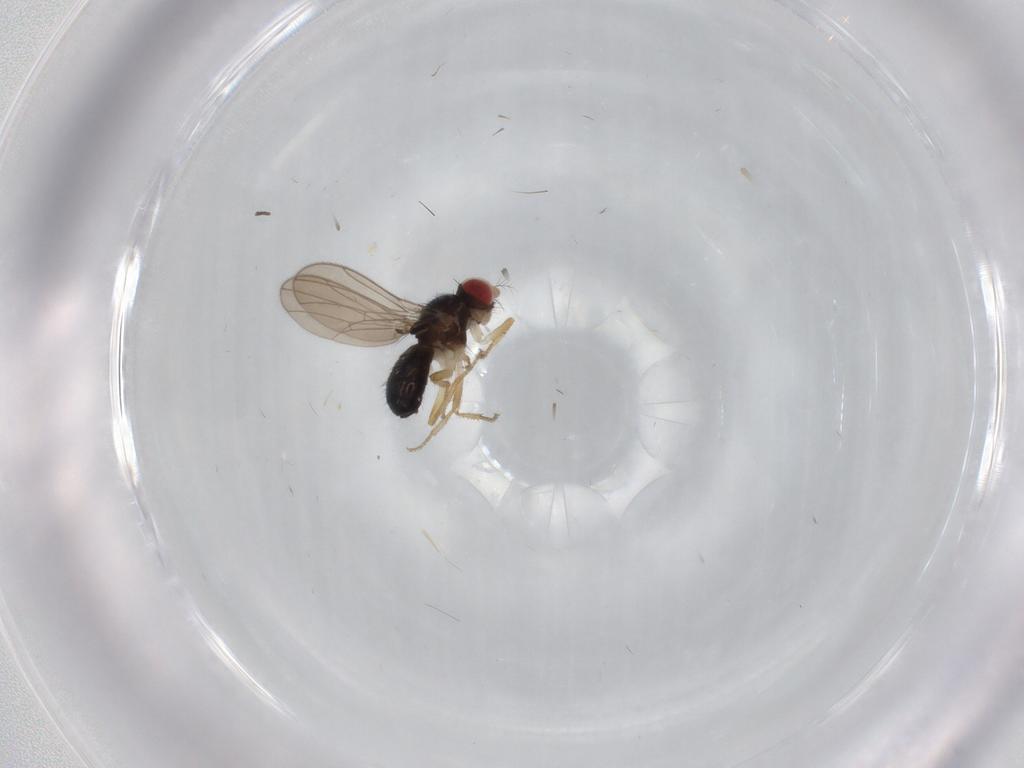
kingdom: Animalia
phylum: Arthropoda
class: Insecta
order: Diptera
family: Drosophilidae
